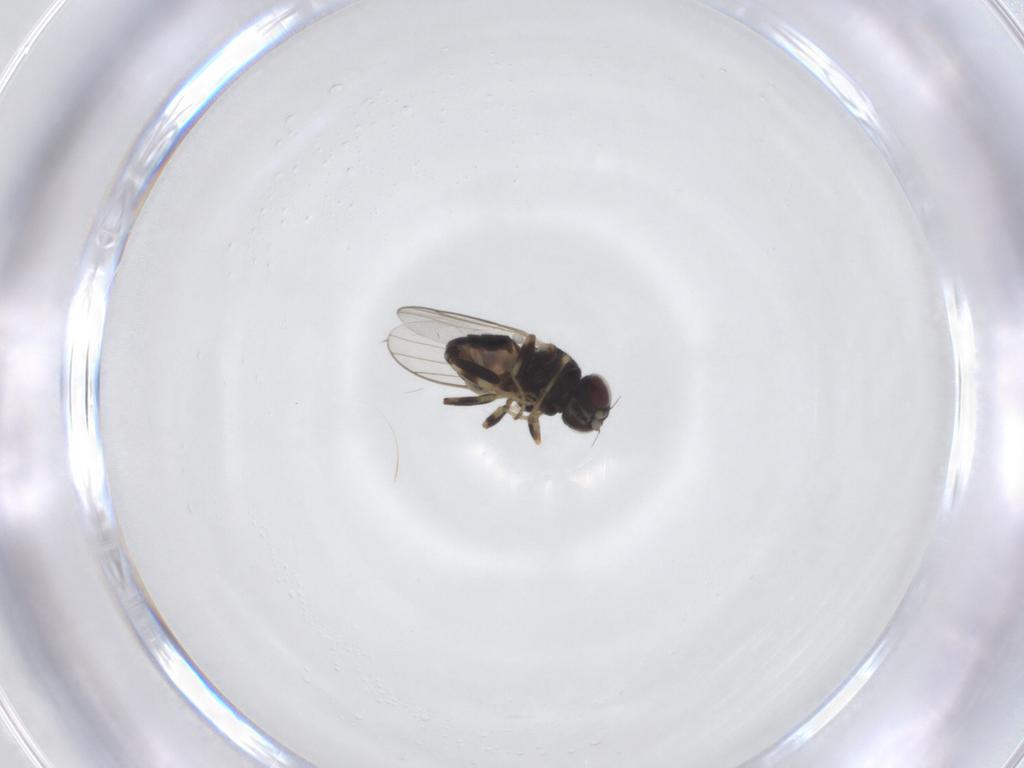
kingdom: Animalia
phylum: Arthropoda
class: Insecta
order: Diptera
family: Chloropidae
